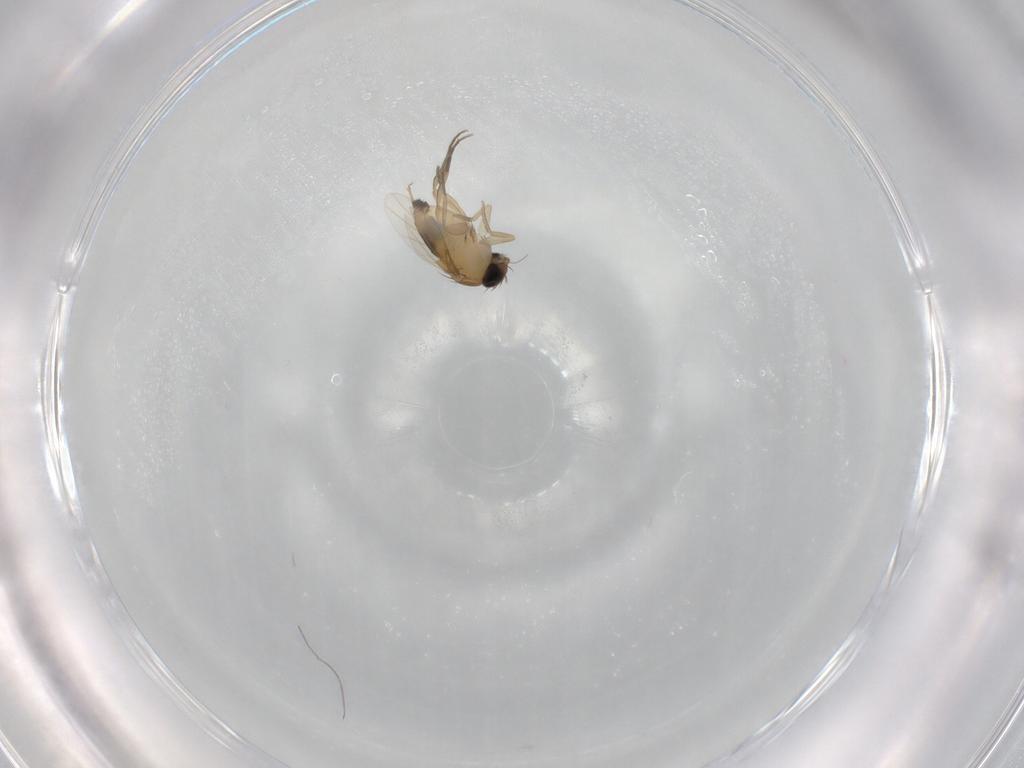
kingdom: Animalia
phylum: Arthropoda
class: Insecta
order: Diptera
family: Phoridae
